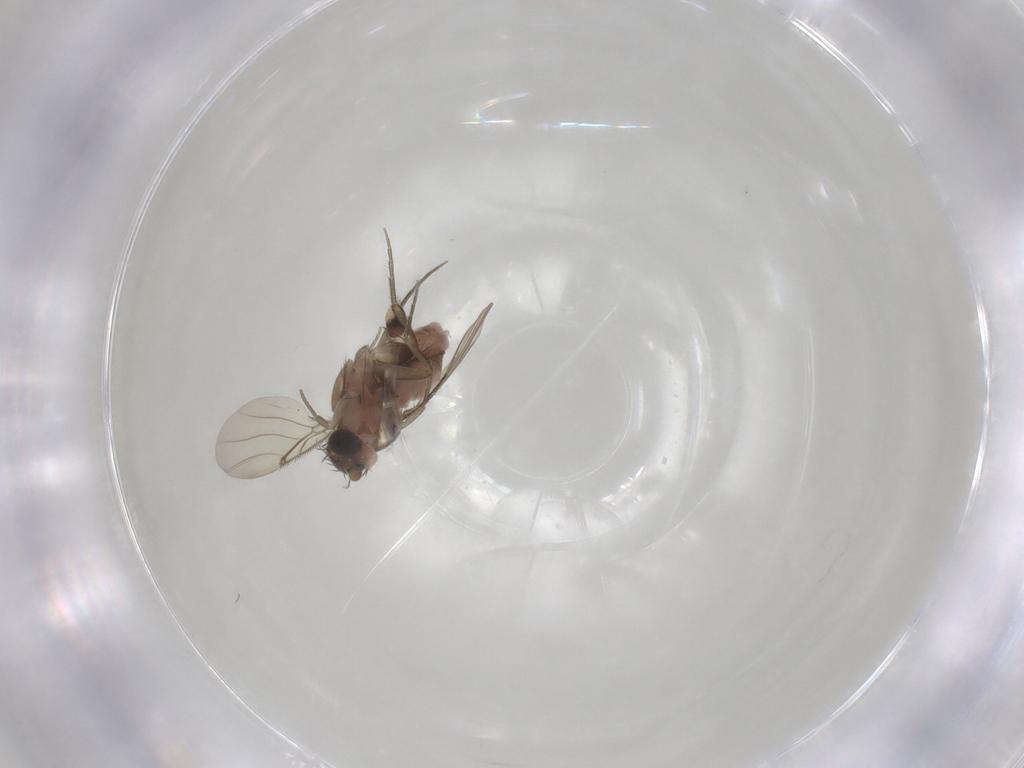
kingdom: Animalia
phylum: Arthropoda
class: Insecta
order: Diptera
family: Phoridae
